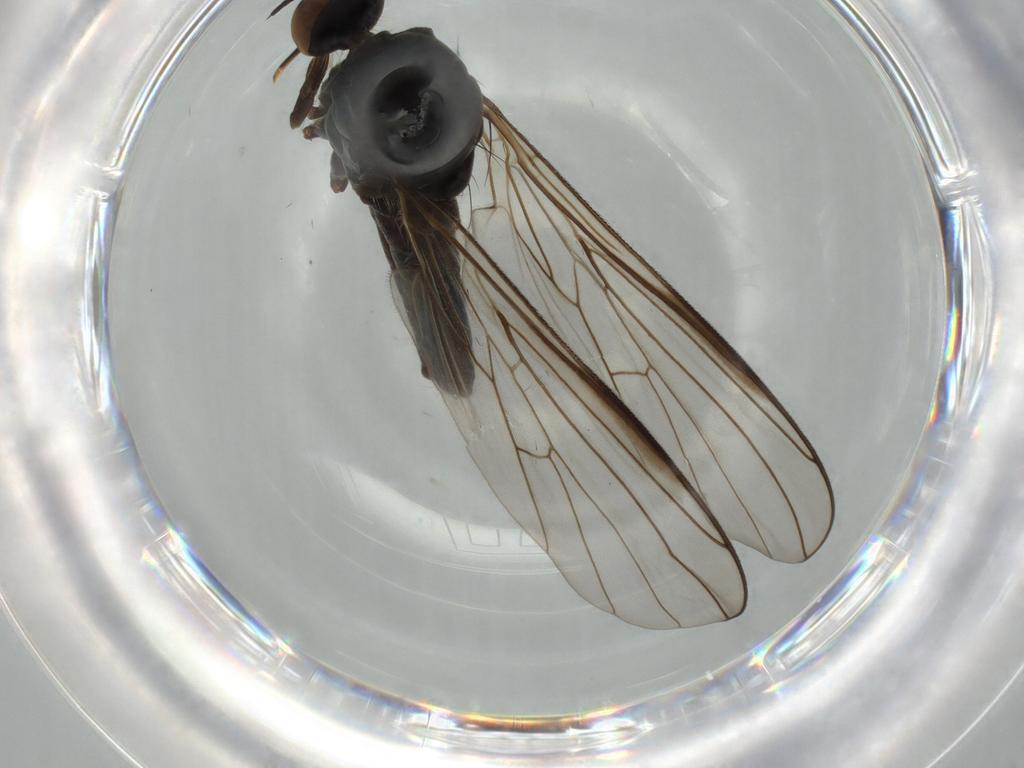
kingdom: Animalia
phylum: Arthropoda
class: Insecta
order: Diptera
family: Empididae
